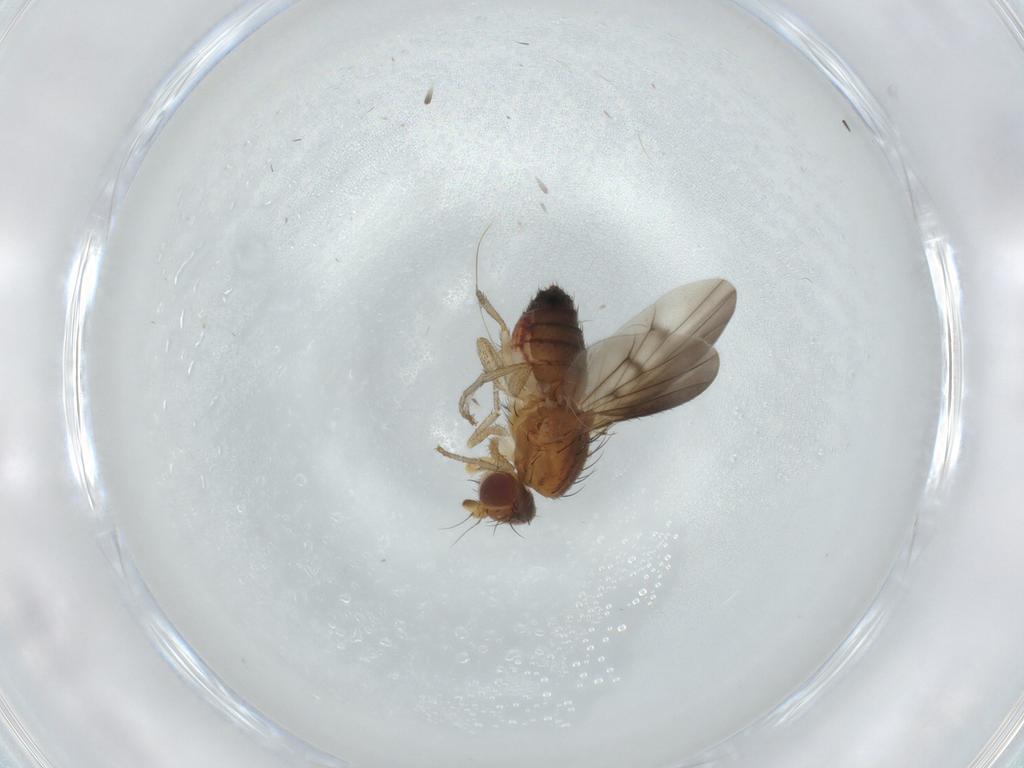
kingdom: Animalia
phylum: Arthropoda
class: Insecta
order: Diptera
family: Heleomyzidae
